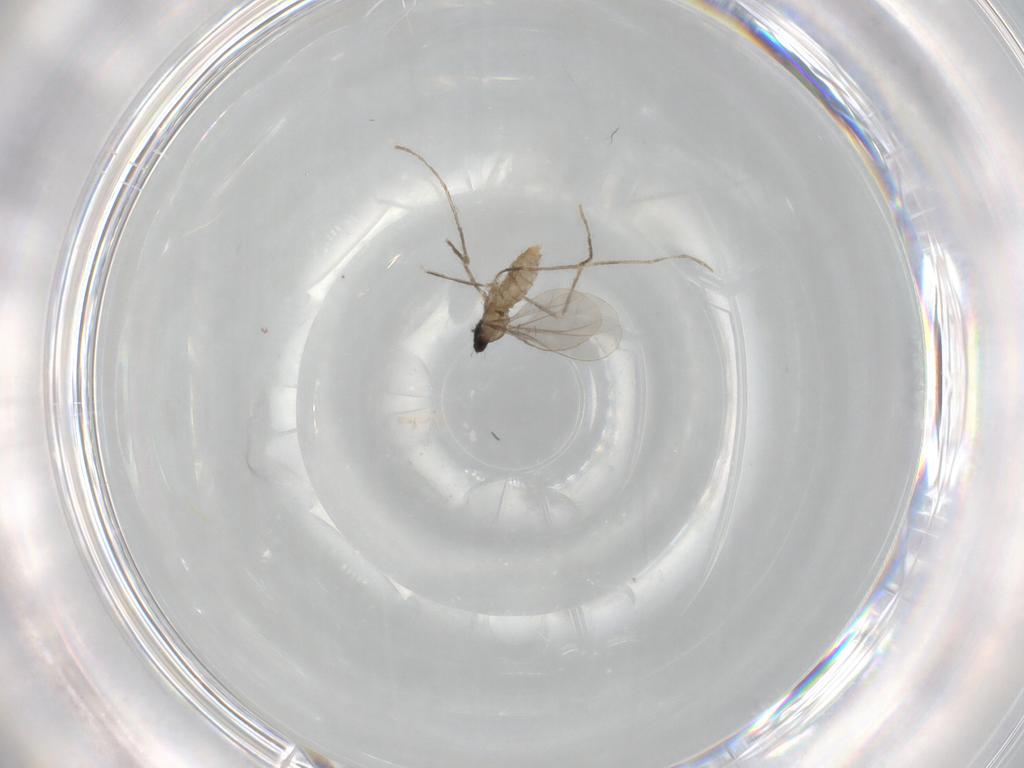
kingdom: Animalia
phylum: Arthropoda
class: Insecta
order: Diptera
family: Cecidomyiidae
